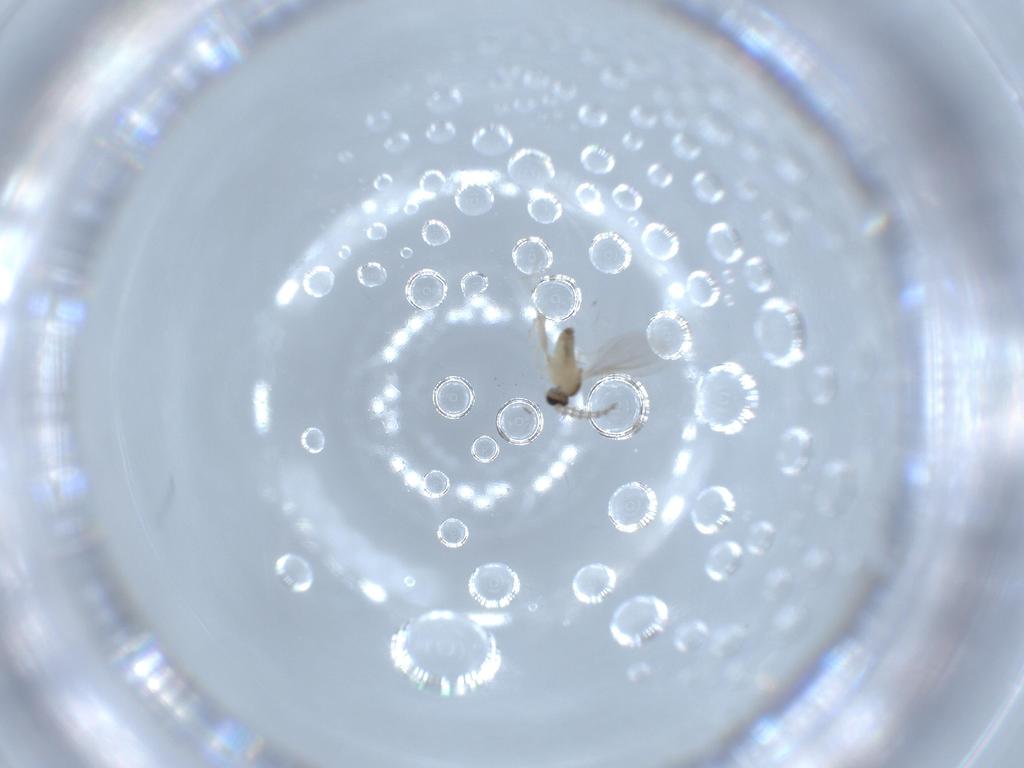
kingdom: Animalia
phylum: Arthropoda
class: Insecta
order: Diptera
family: Cecidomyiidae
